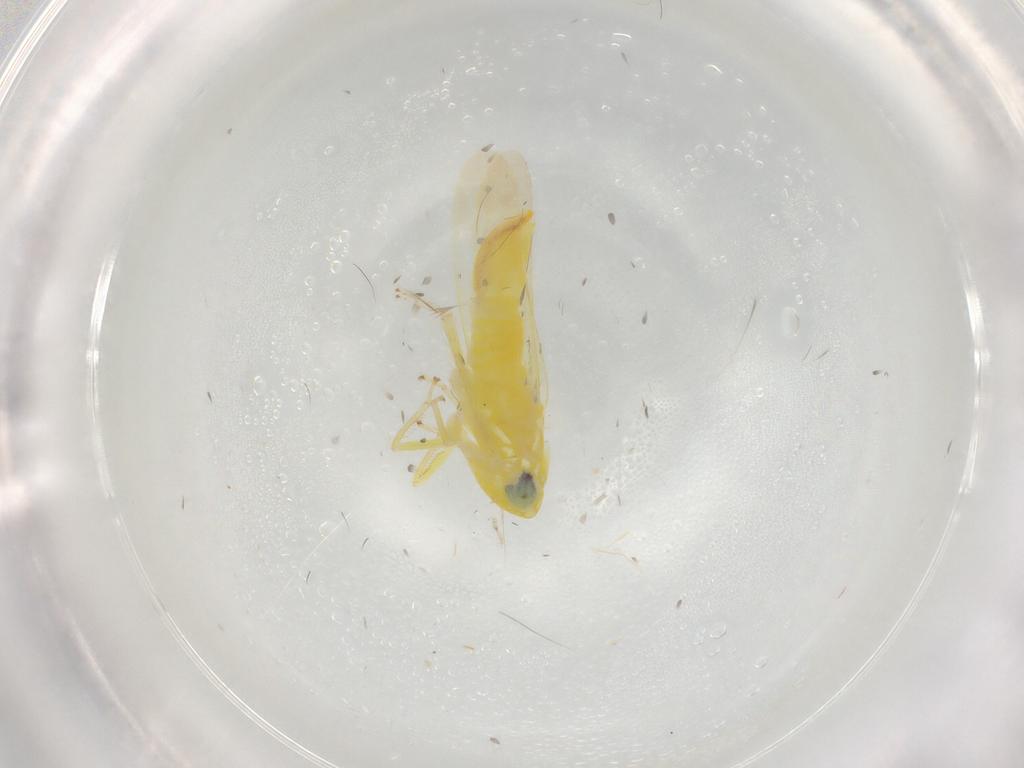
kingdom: Animalia
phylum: Arthropoda
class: Insecta
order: Hemiptera
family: Cicadellidae
